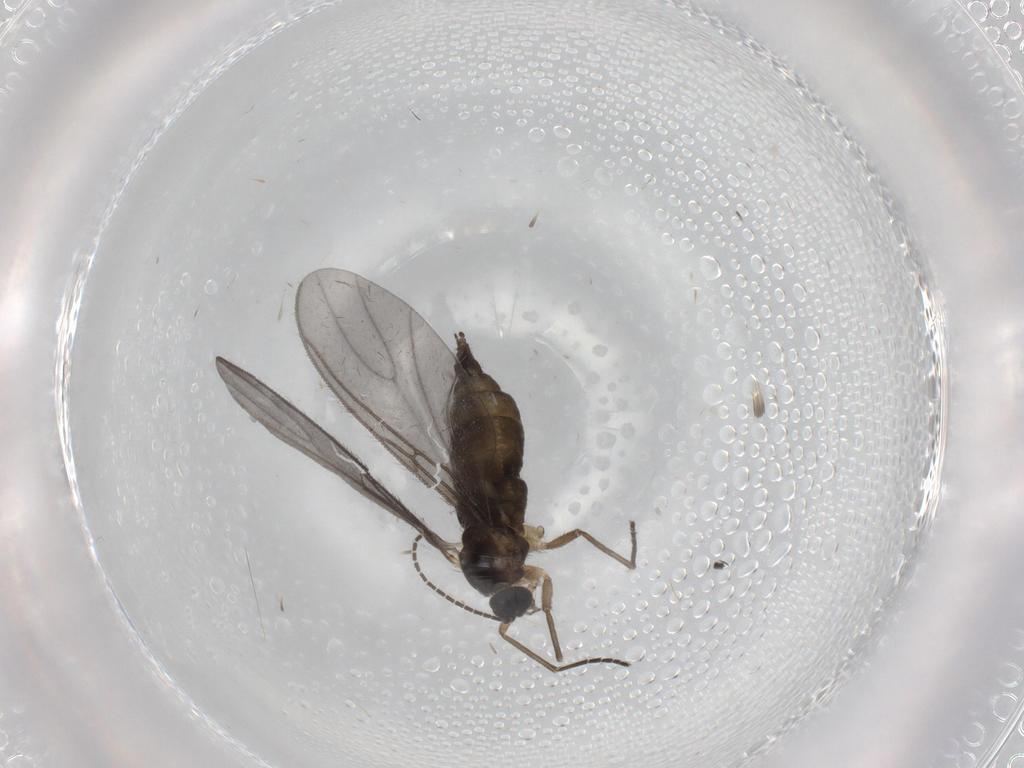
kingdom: Animalia
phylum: Arthropoda
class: Insecta
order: Diptera
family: Sciaridae
